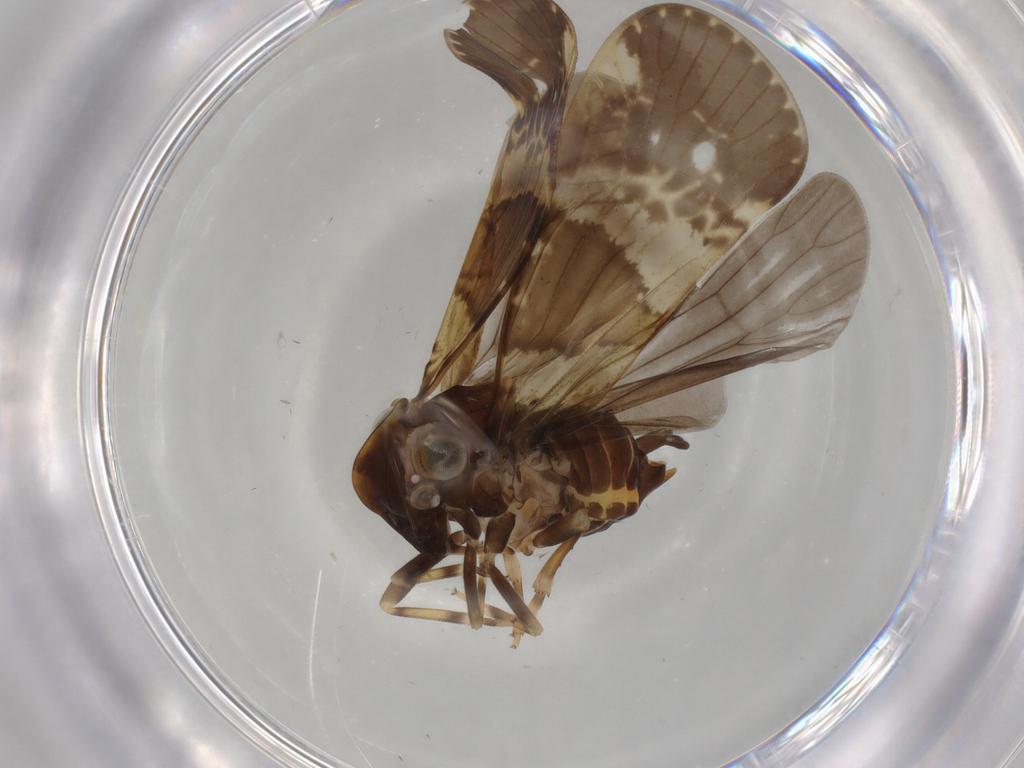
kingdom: Animalia
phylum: Arthropoda
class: Insecta
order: Hemiptera
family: Cixiidae
